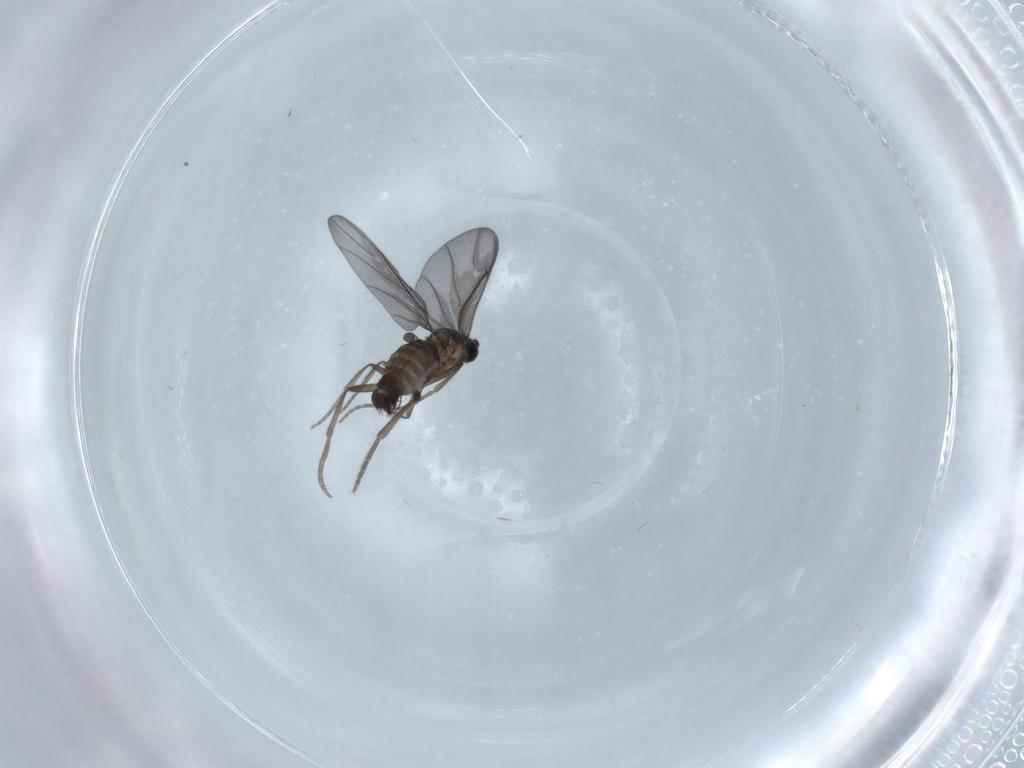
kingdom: Animalia
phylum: Arthropoda
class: Insecta
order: Diptera
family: Phoridae
